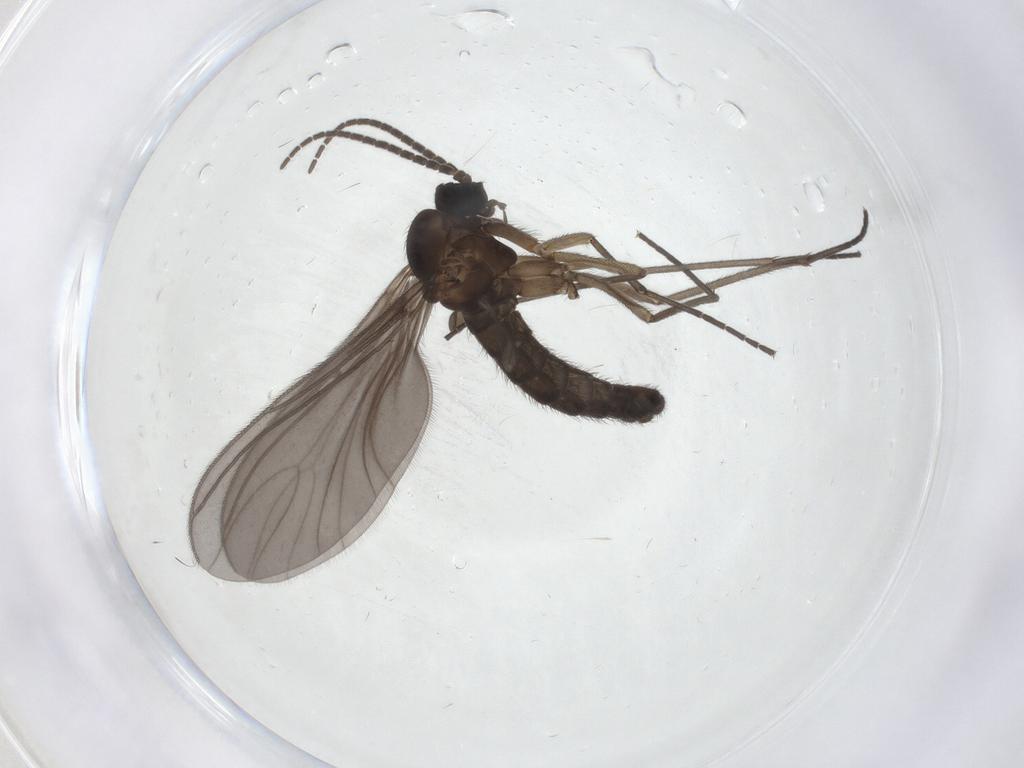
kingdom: Animalia
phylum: Arthropoda
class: Insecta
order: Diptera
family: Sciaridae
